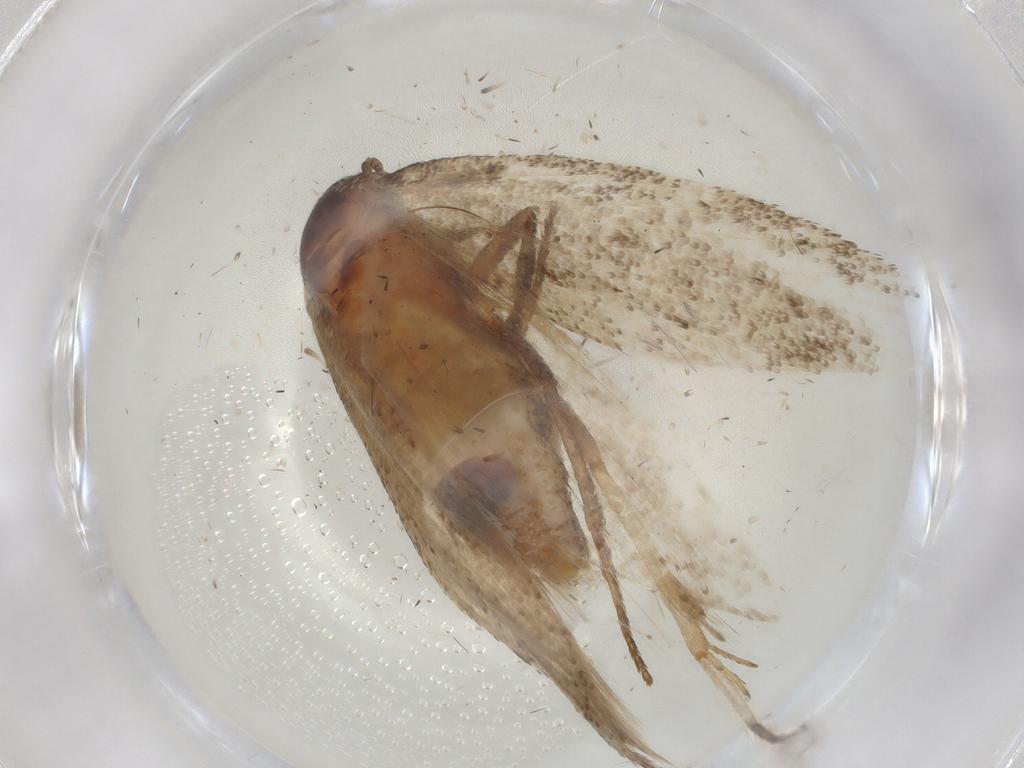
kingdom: Animalia
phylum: Arthropoda
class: Insecta
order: Lepidoptera
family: Cosmopterigidae
